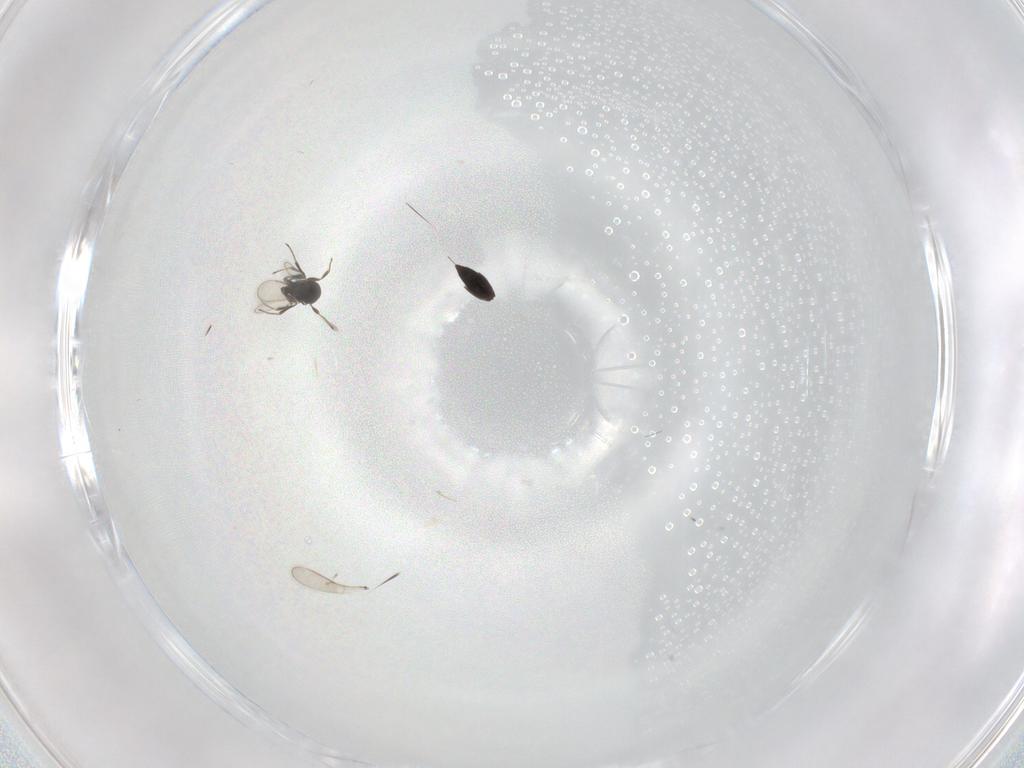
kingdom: Animalia
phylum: Arthropoda
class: Insecta
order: Hymenoptera
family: Scelionidae
